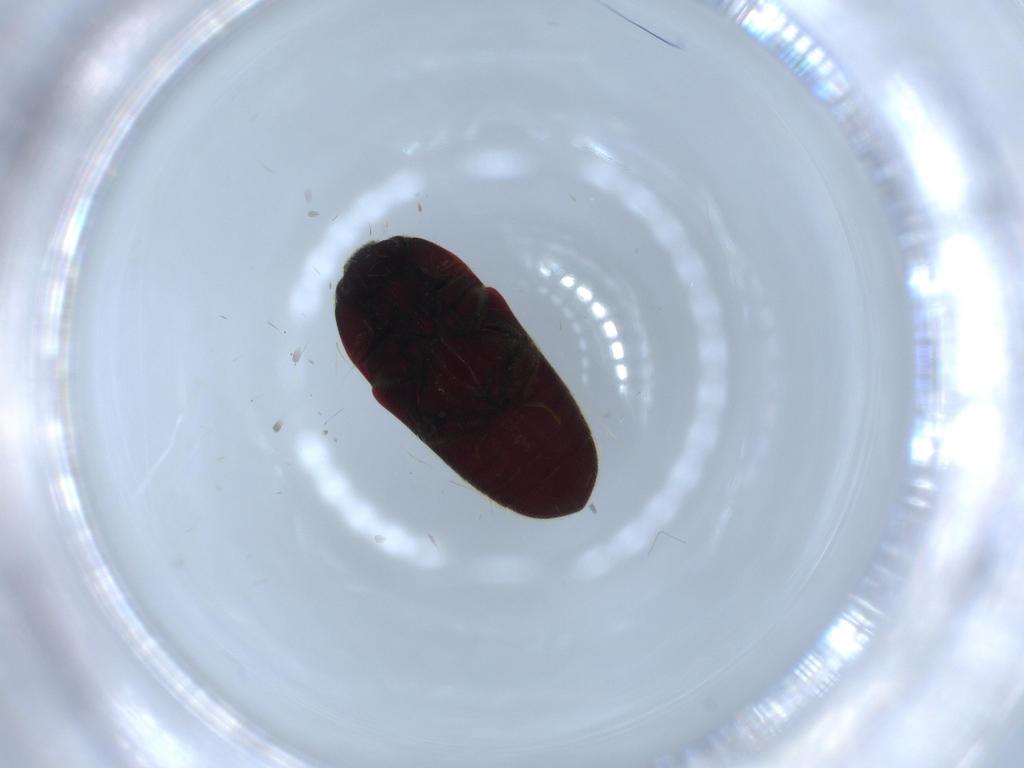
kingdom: Animalia
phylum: Arthropoda
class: Insecta
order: Coleoptera
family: Throscidae
